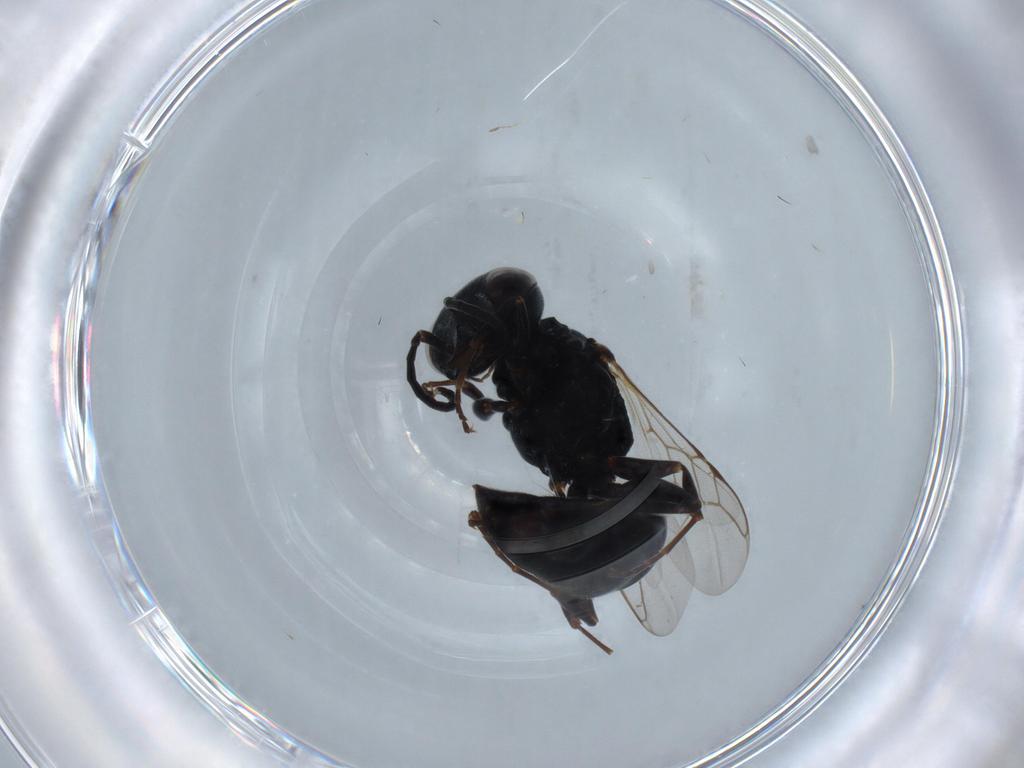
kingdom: Animalia
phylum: Arthropoda
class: Insecta
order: Hymenoptera
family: Crabronidae
